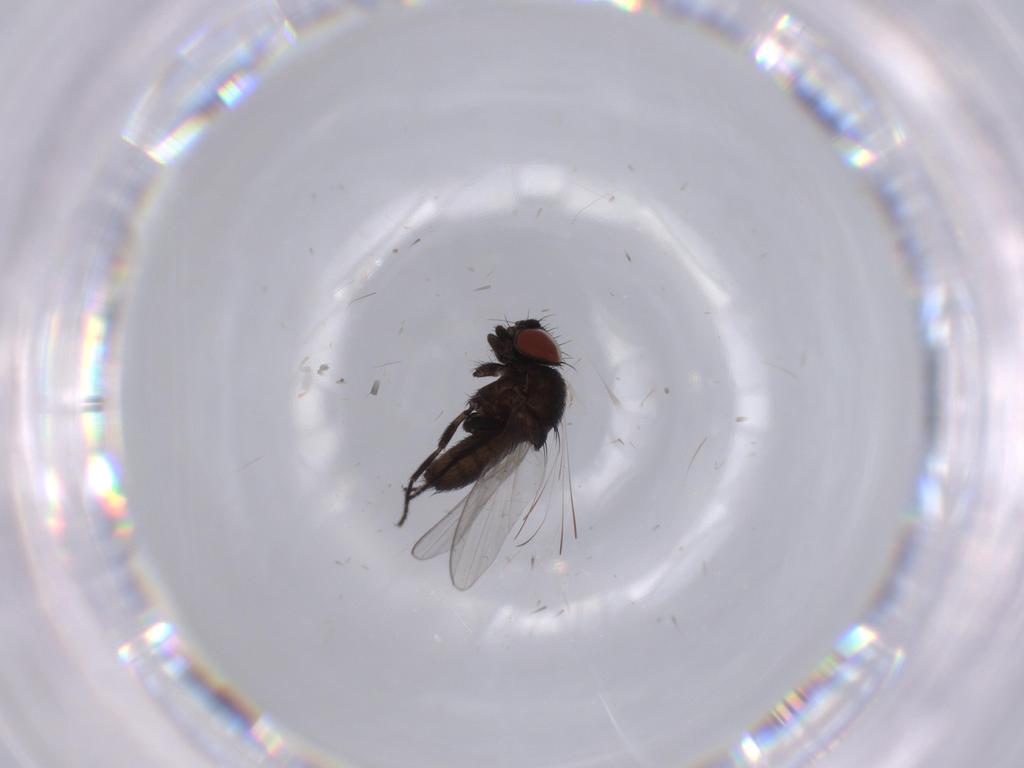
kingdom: Animalia
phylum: Arthropoda
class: Insecta
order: Diptera
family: Milichiidae
